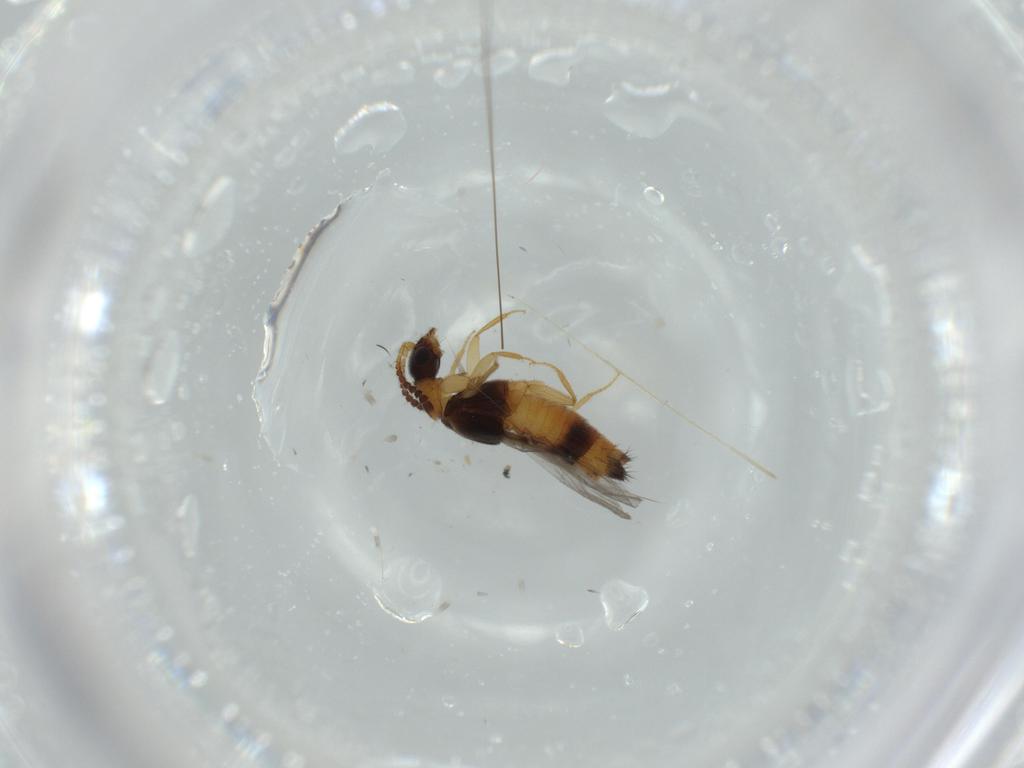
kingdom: Animalia
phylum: Arthropoda
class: Insecta
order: Coleoptera
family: Staphylinidae
